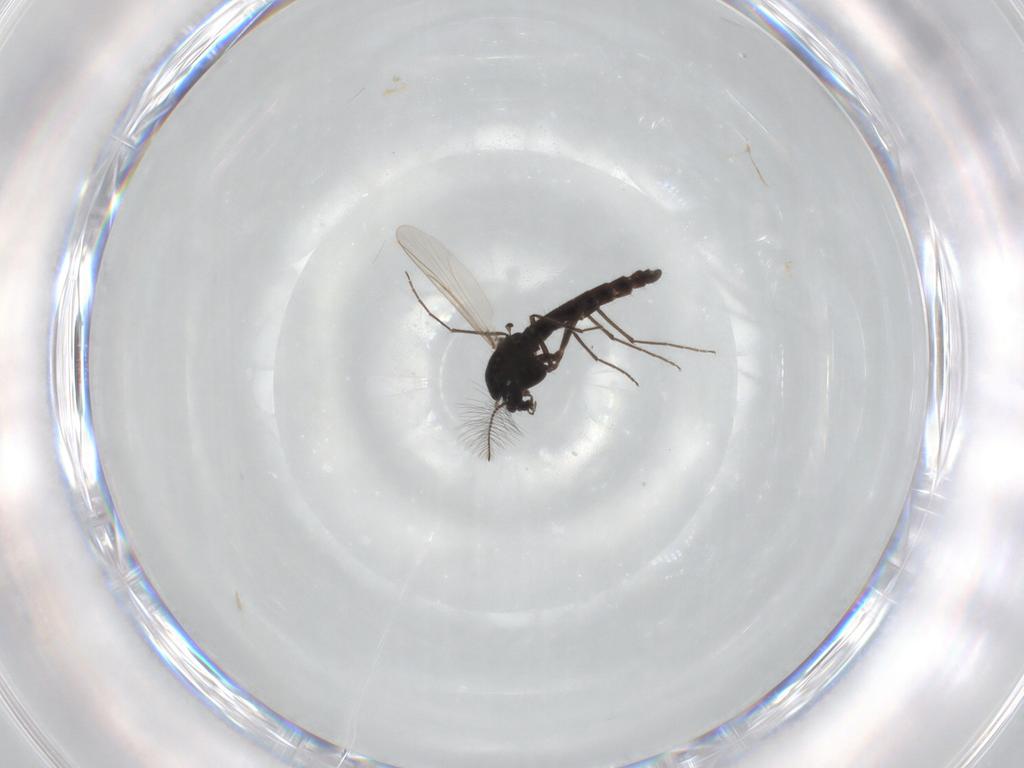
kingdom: Animalia
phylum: Arthropoda
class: Insecta
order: Diptera
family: Chironomidae
